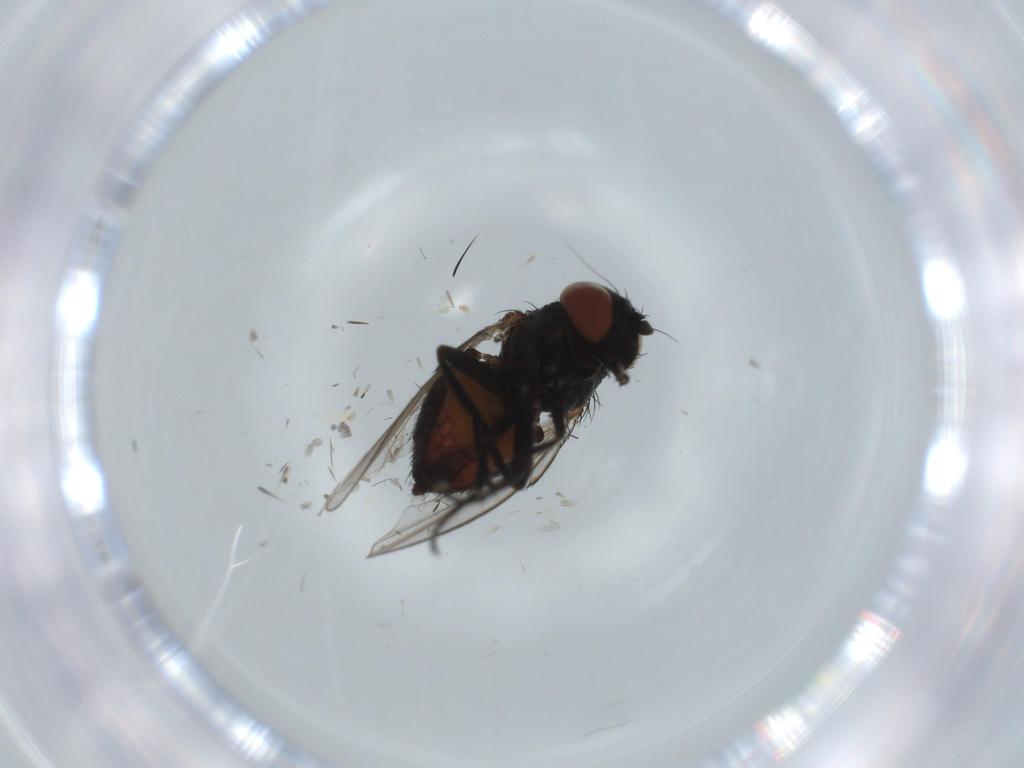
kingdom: Animalia
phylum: Arthropoda
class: Insecta
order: Diptera
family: Milichiidae
